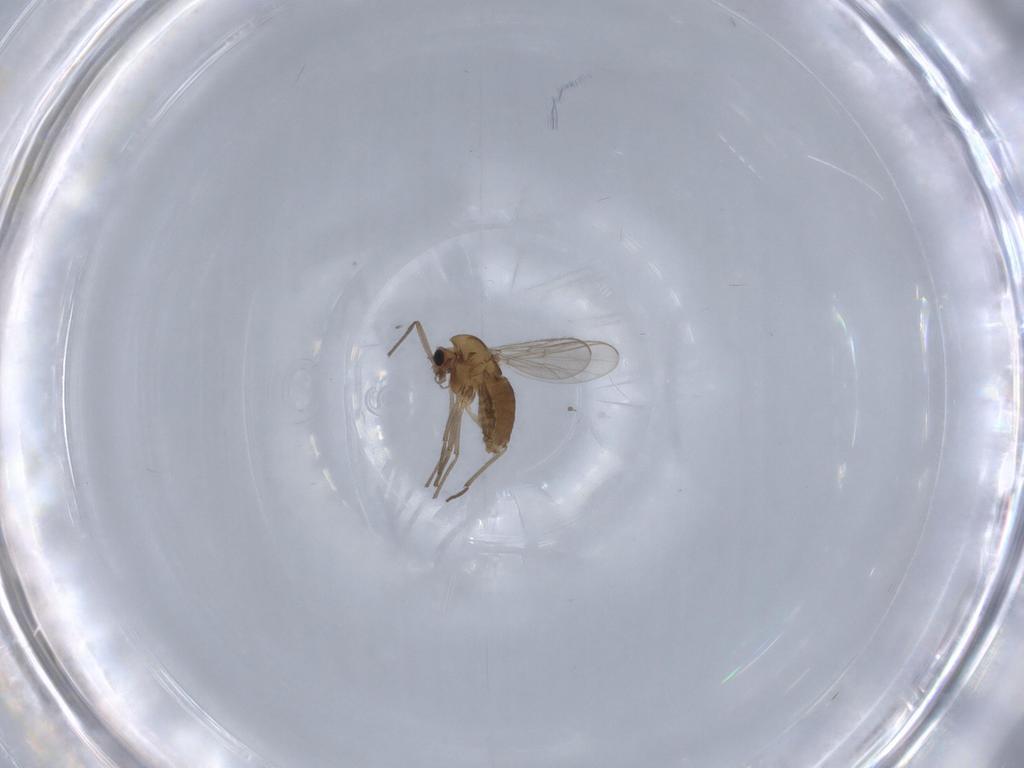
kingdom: Animalia
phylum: Arthropoda
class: Insecta
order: Diptera
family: Chironomidae
